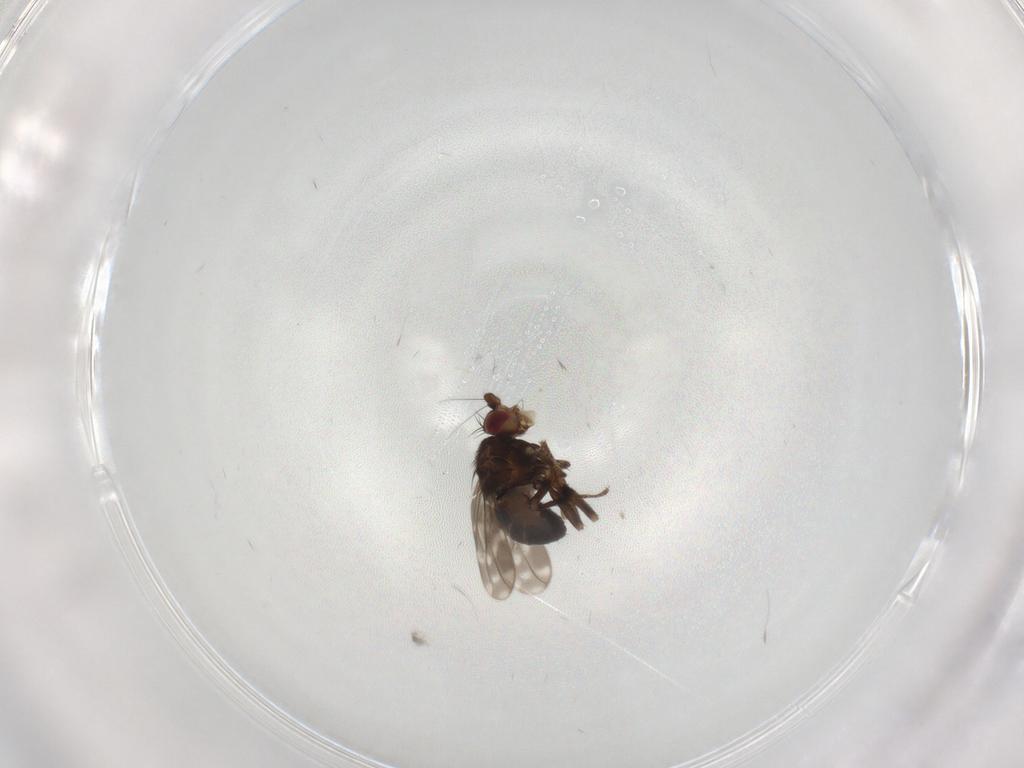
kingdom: Animalia
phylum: Arthropoda
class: Insecta
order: Diptera
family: Sphaeroceridae
